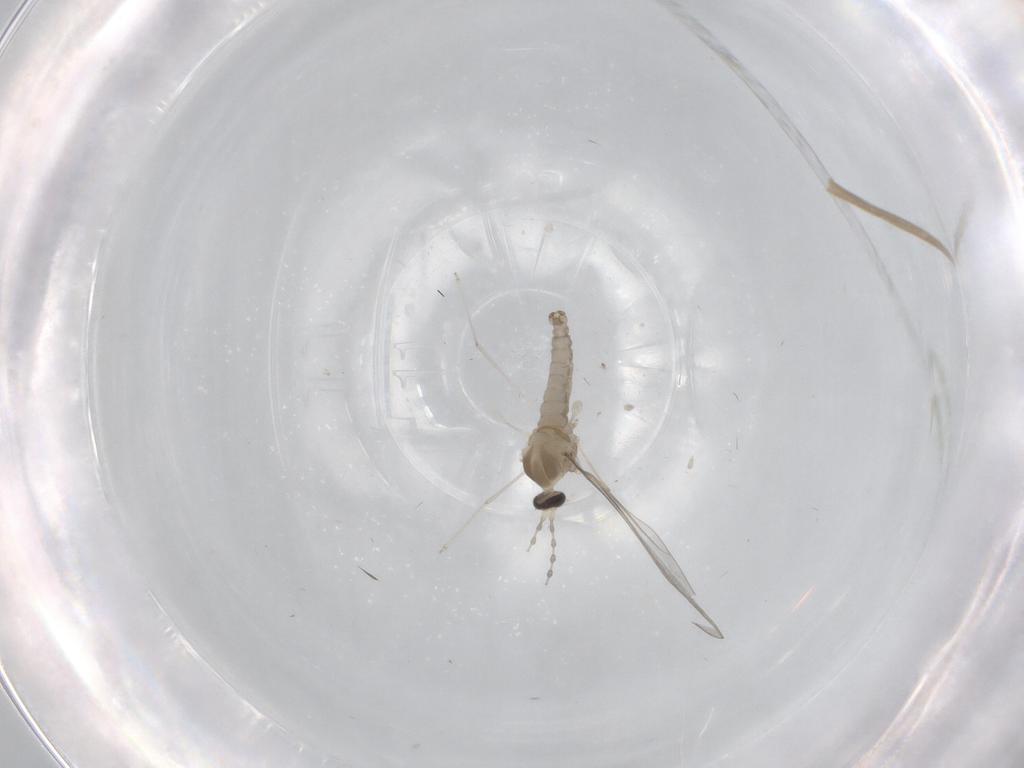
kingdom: Animalia
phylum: Arthropoda
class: Insecta
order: Diptera
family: Cecidomyiidae
